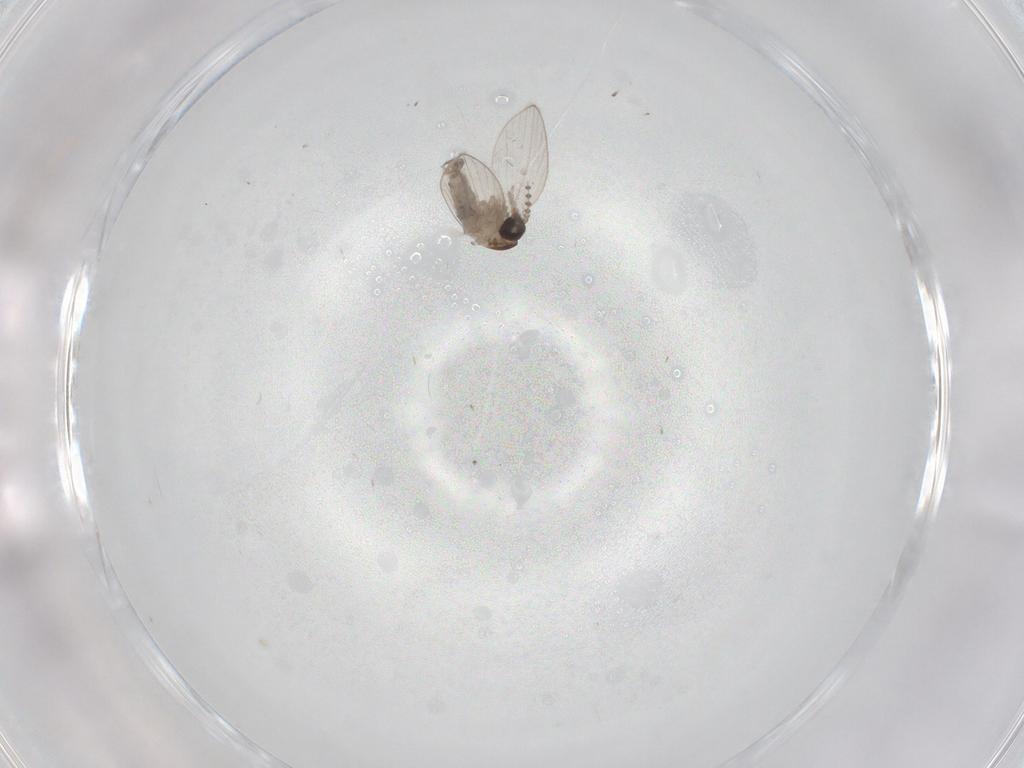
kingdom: Animalia
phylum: Arthropoda
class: Insecta
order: Diptera
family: Psychodidae
